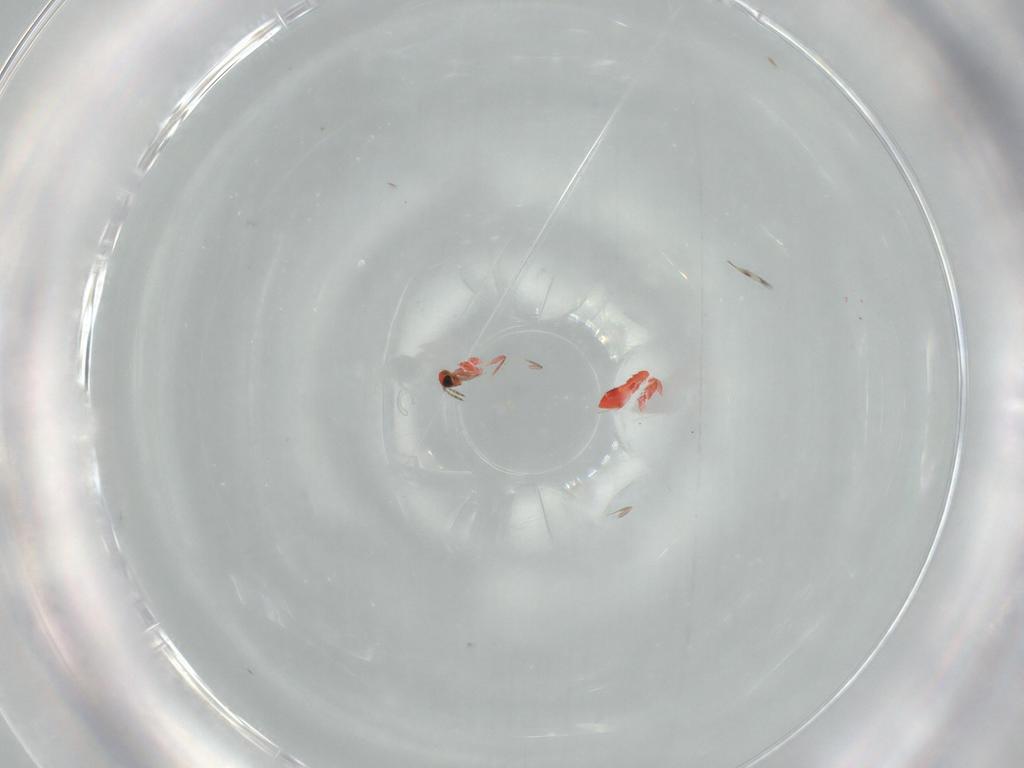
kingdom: Animalia
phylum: Arthropoda
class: Insecta
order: Hymenoptera
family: Trichogrammatidae
